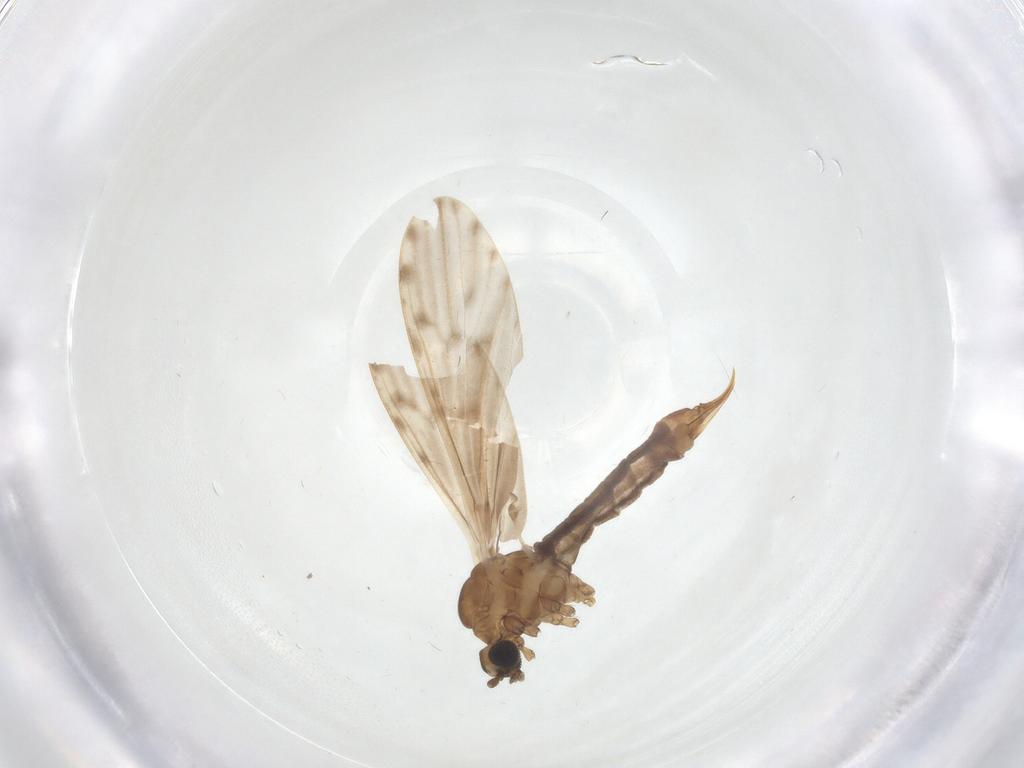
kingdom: Animalia
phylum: Arthropoda
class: Insecta
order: Diptera
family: Limoniidae
